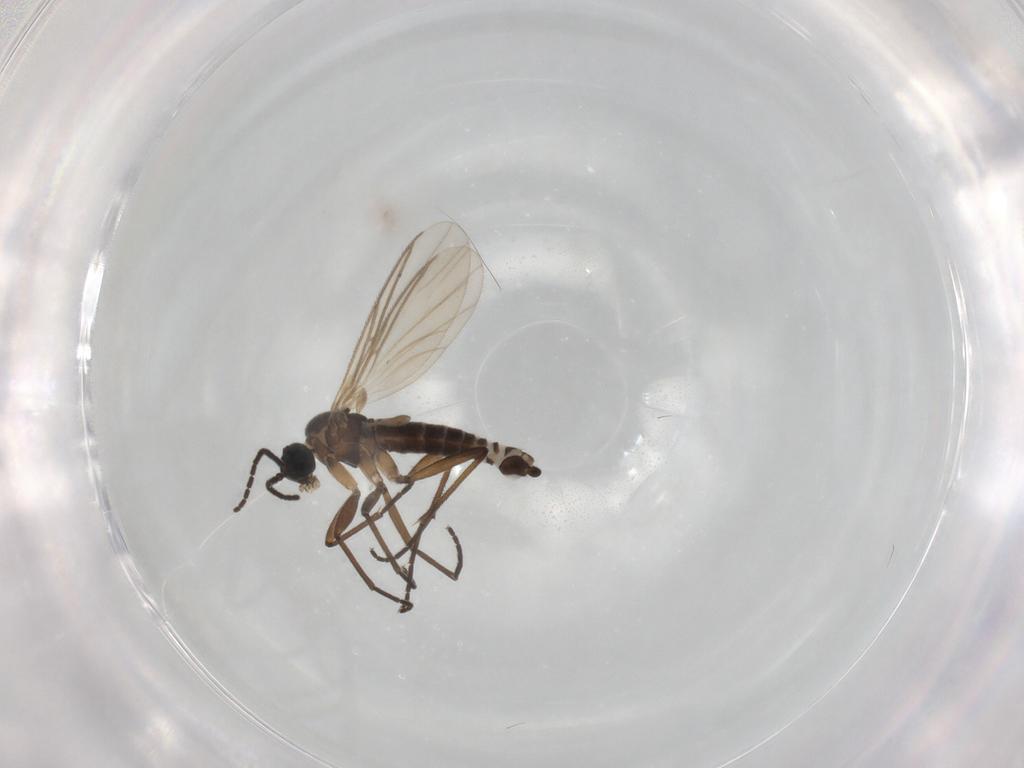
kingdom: Animalia
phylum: Arthropoda
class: Insecta
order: Diptera
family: Sciaridae
